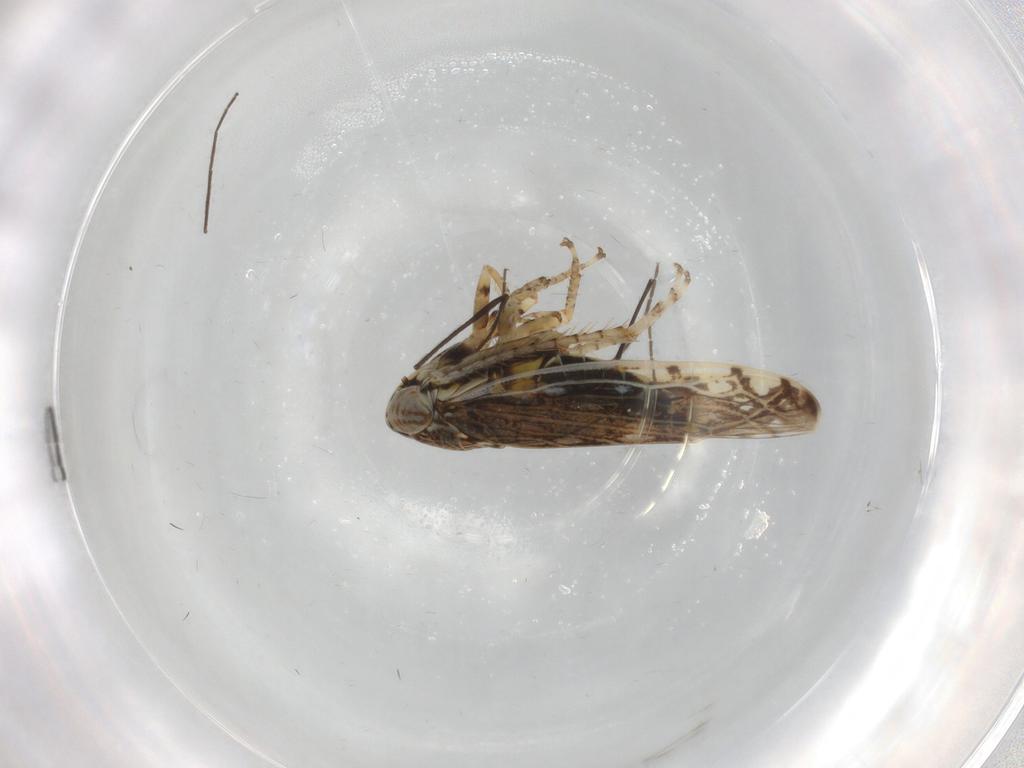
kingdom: Animalia
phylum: Arthropoda
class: Insecta
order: Hemiptera
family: Cicadellidae
